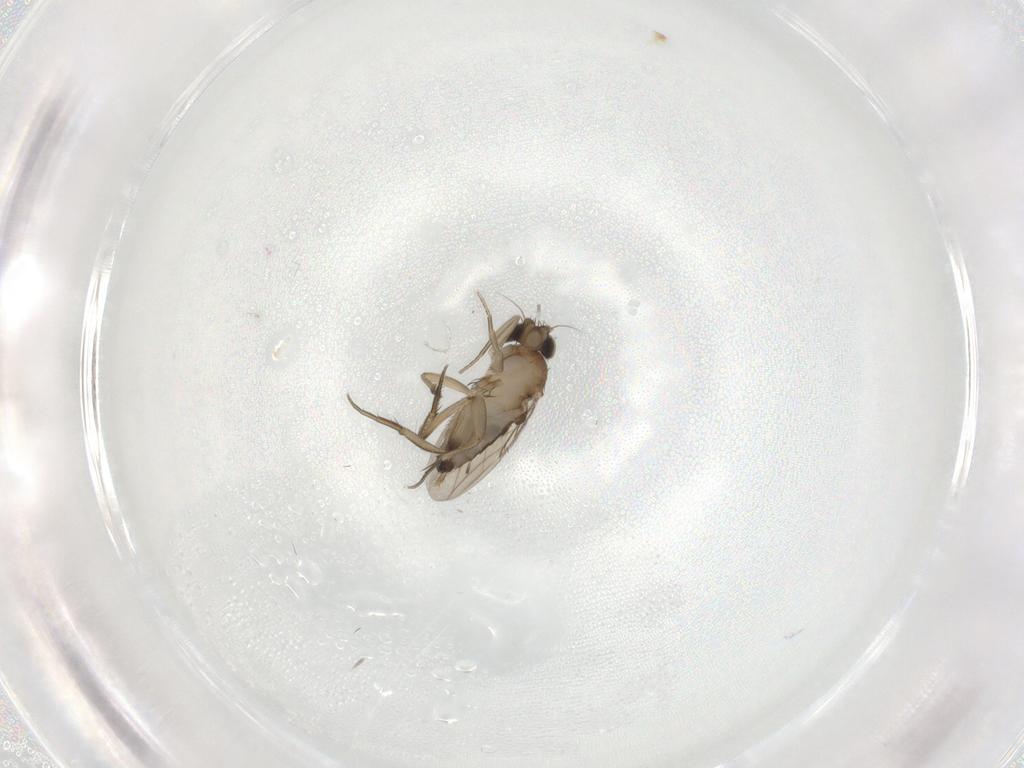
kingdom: Animalia
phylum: Arthropoda
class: Insecta
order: Diptera
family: Phoridae
